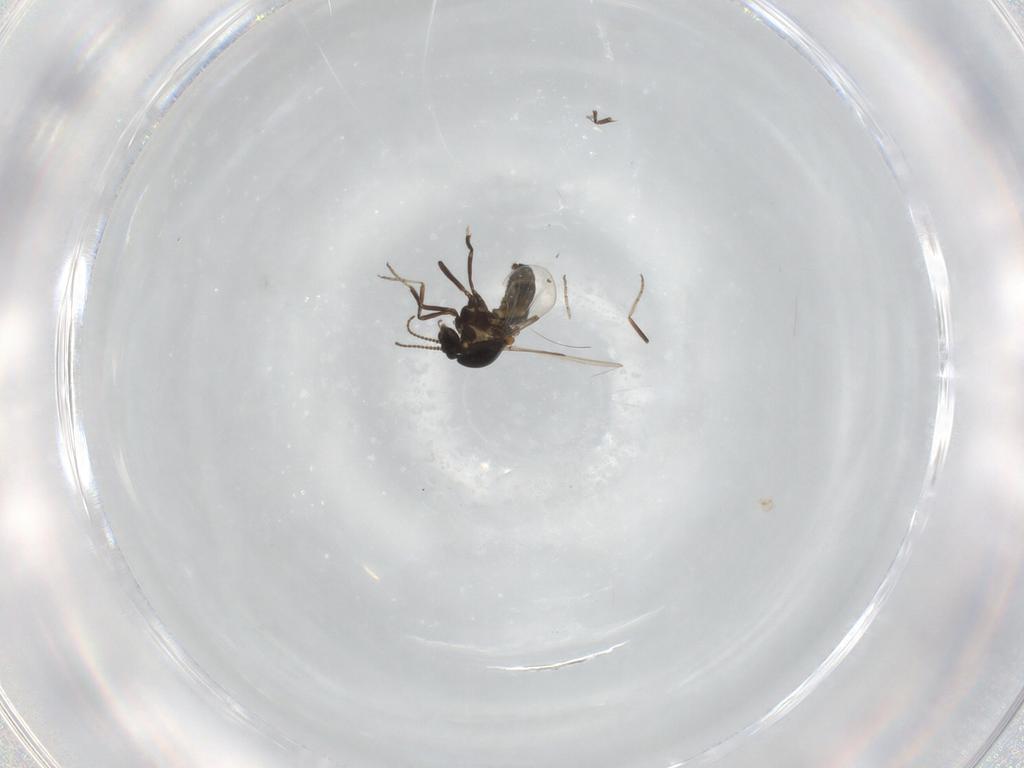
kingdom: Animalia
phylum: Arthropoda
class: Insecta
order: Diptera
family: Ceratopogonidae
